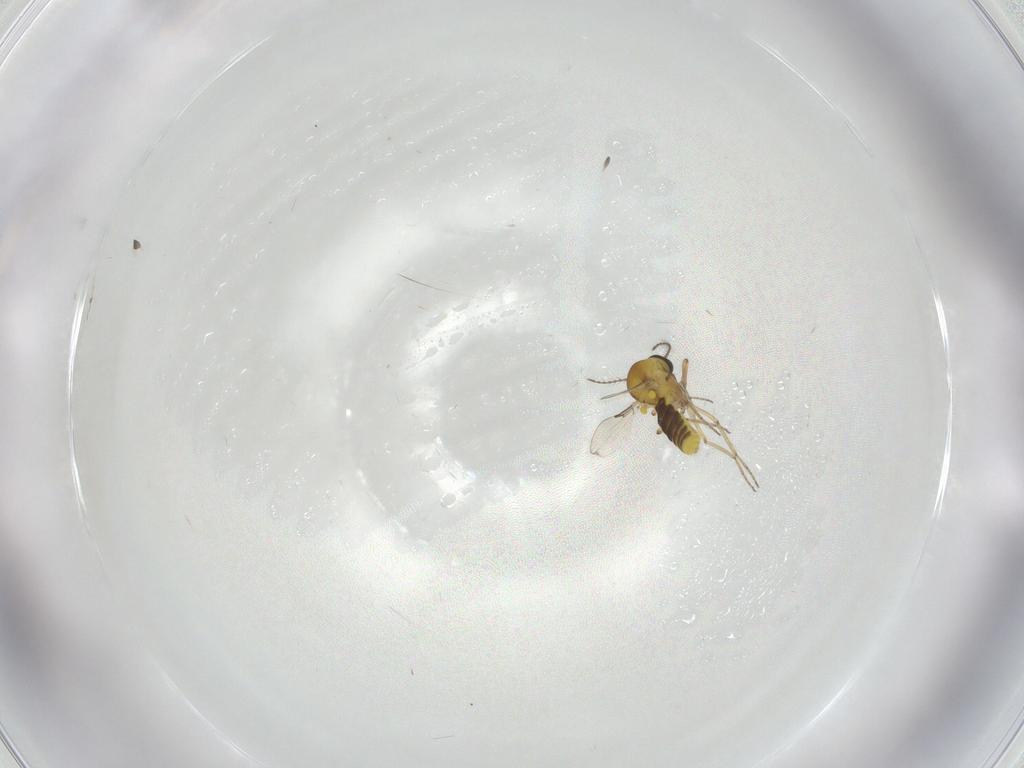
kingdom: Animalia
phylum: Arthropoda
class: Insecta
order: Diptera
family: Ceratopogonidae
